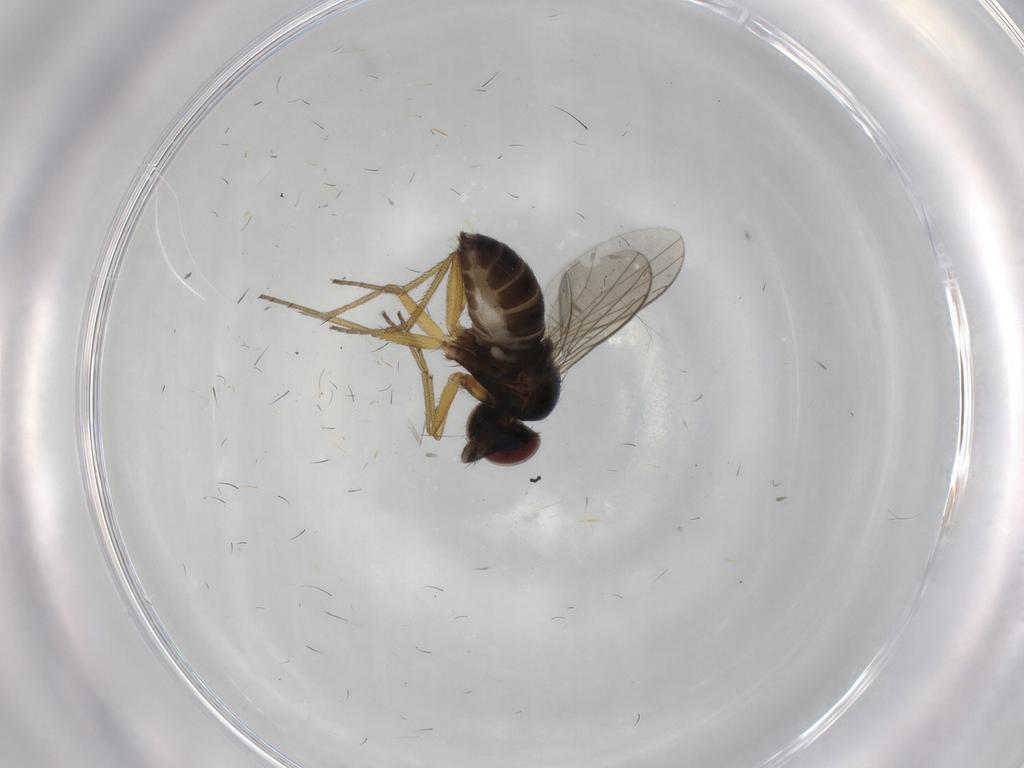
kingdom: Animalia
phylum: Arthropoda
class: Insecta
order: Diptera
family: Dolichopodidae
